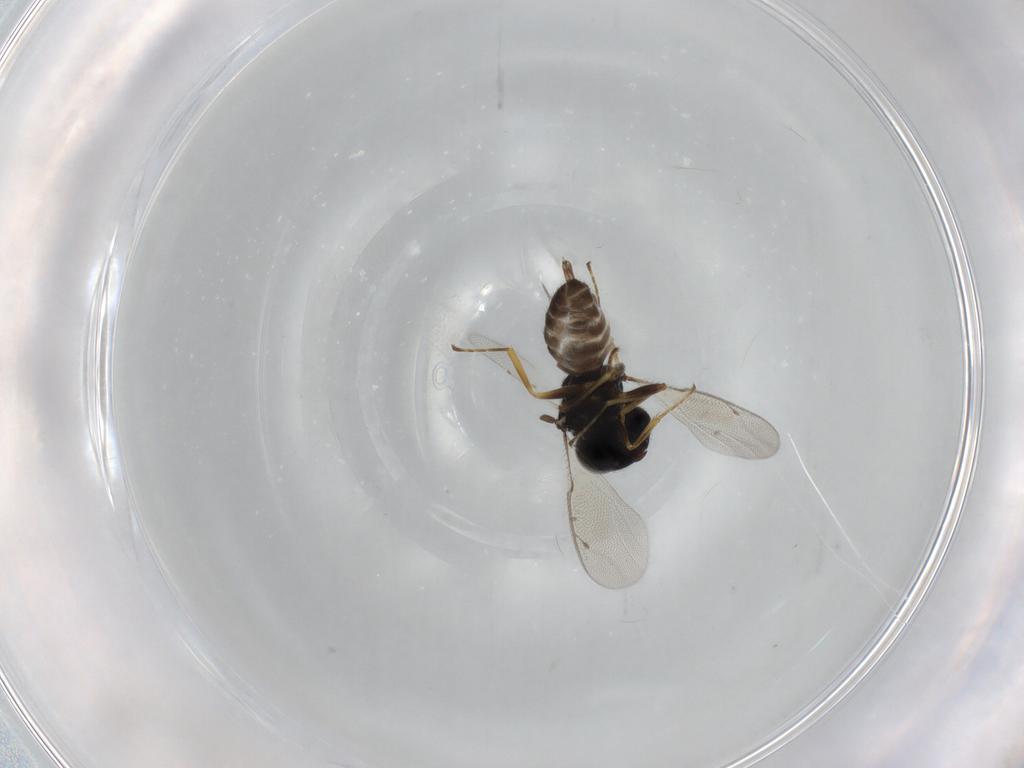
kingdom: Animalia
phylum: Arthropoda
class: Insecta
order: Hymenoptera
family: Pteromalidae
